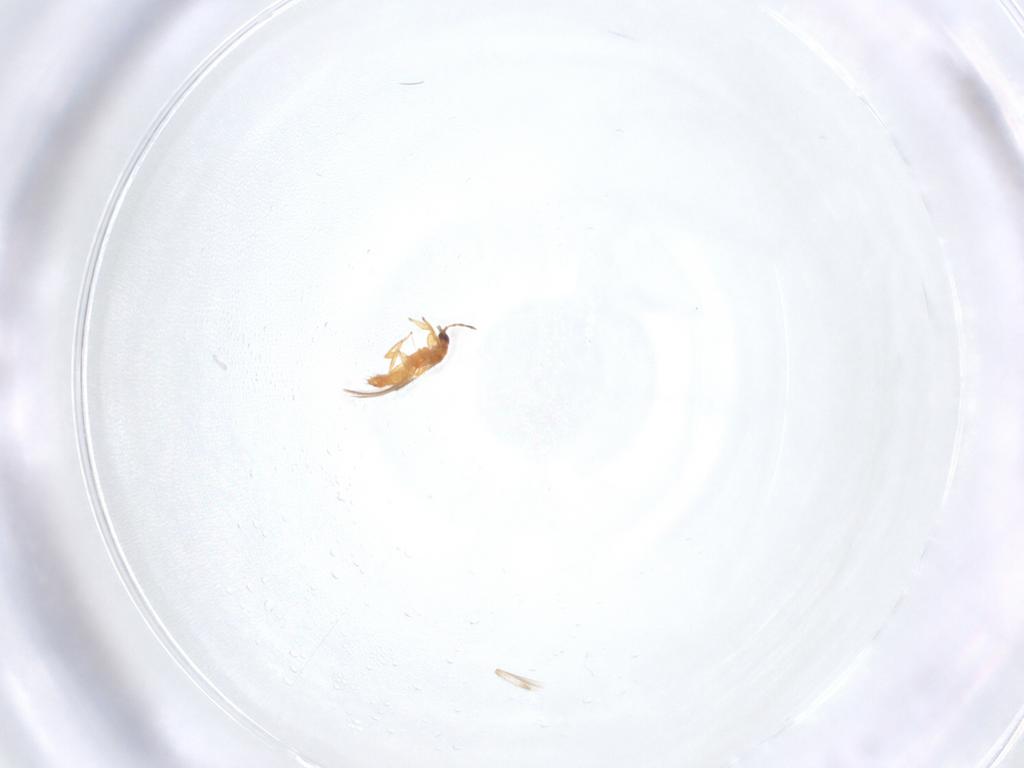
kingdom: Animalia
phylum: Arthropoda
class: Insecta
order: Thysanoptera
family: Thripidae
